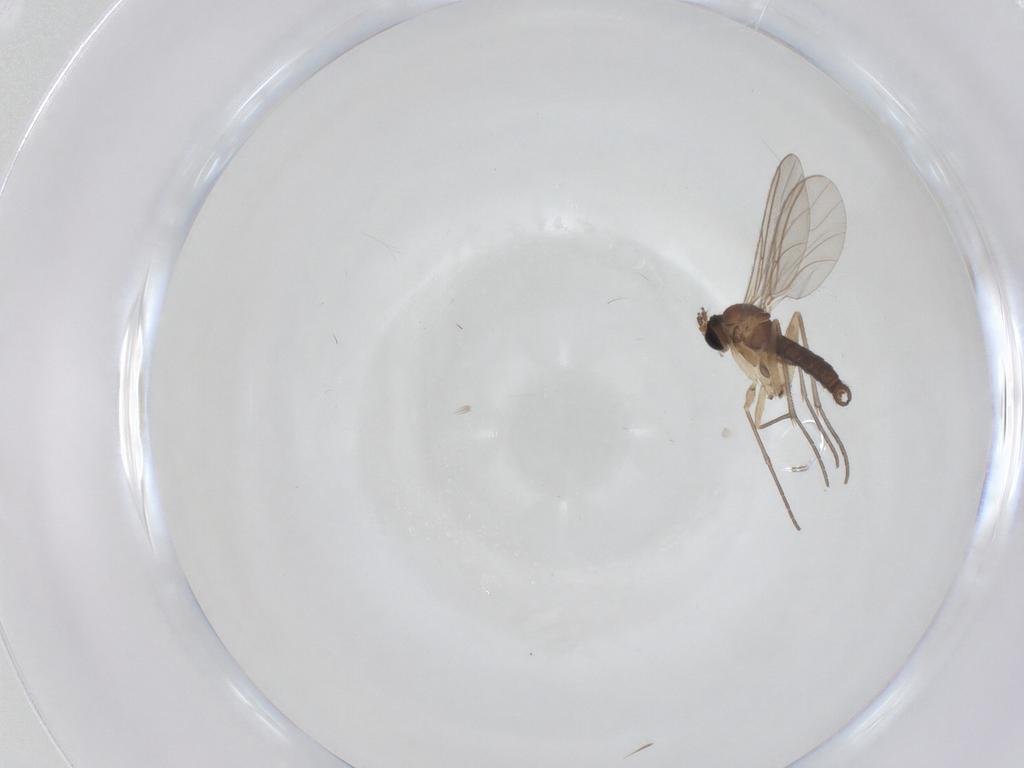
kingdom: Animalia
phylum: Arthropoda
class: Insecta
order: Diptera
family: Sciaridae
